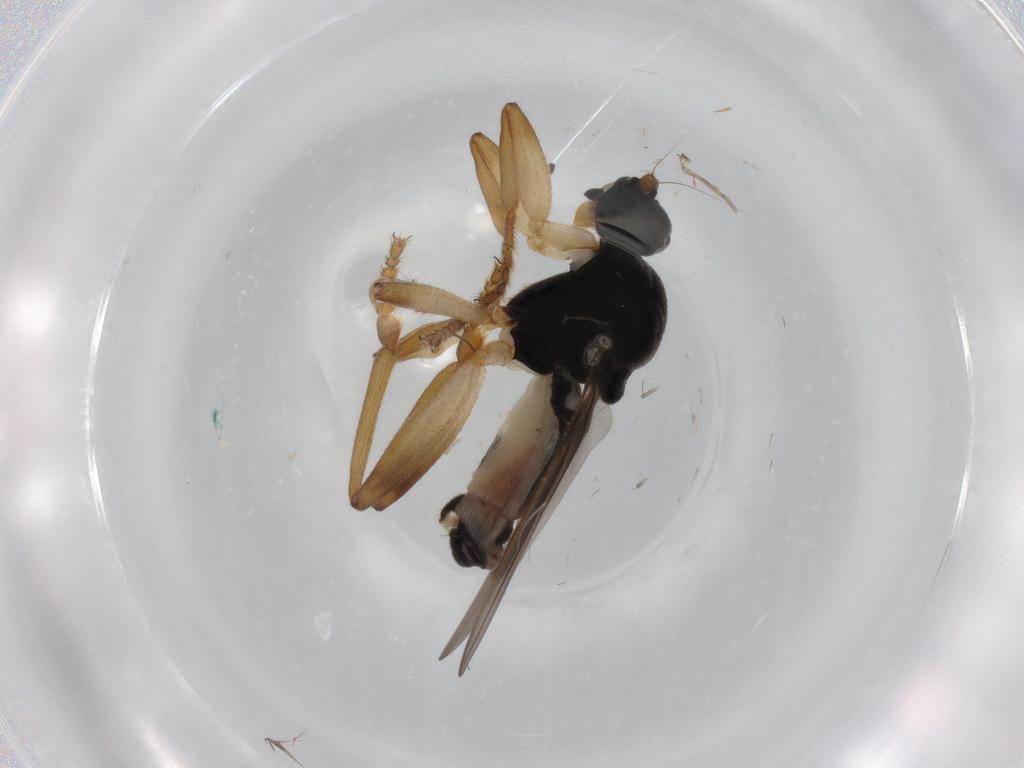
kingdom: Animalia
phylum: Arthropoda
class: Insecta
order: Diptera
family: Sphaeroceridae
